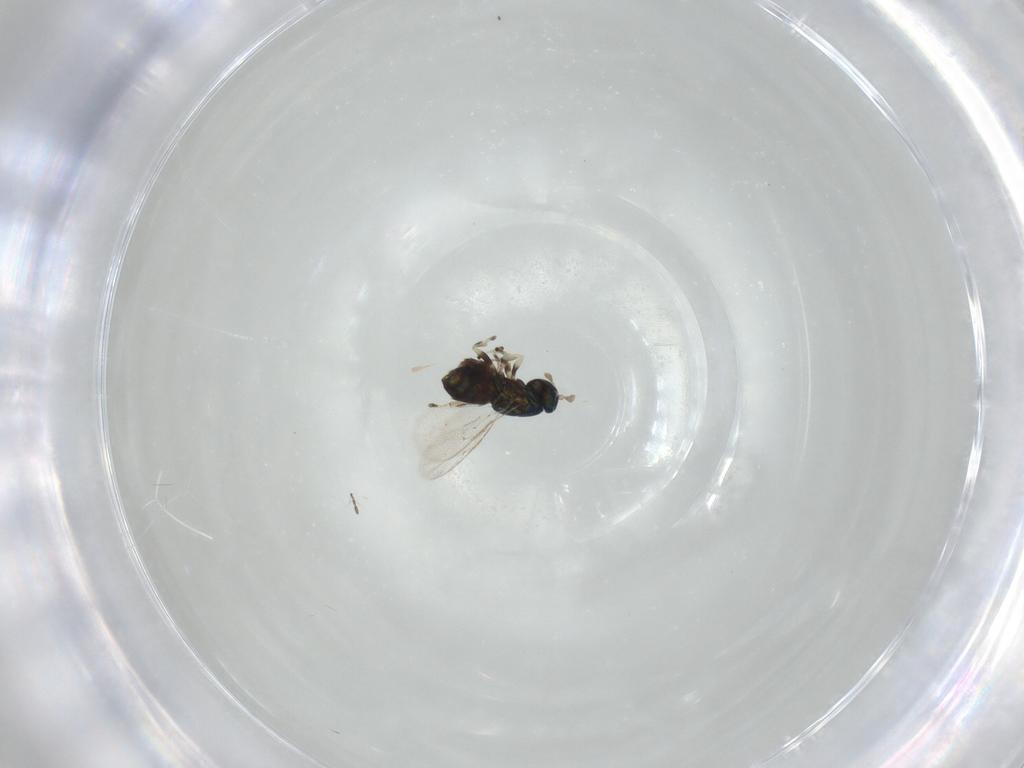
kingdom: Animalia
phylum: Arthropoda
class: Insecta
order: Hymenoptera
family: Eulophidae
